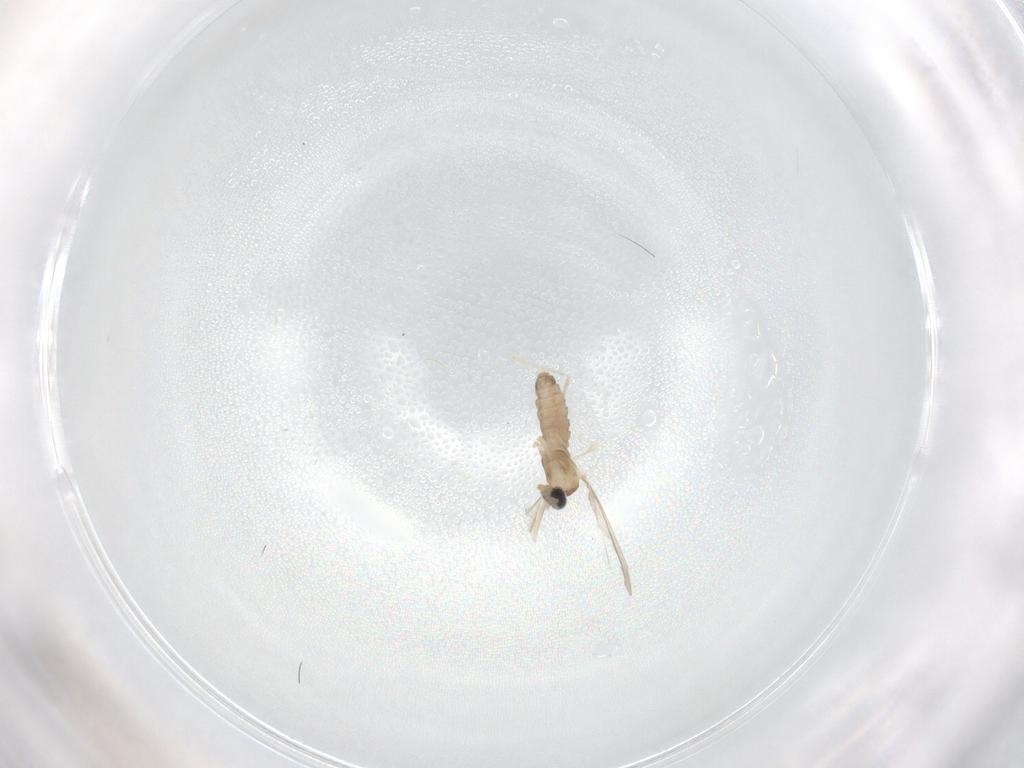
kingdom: Animalia
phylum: Arthropoda
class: Insecta
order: Diptera
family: Cecidomyiidae
